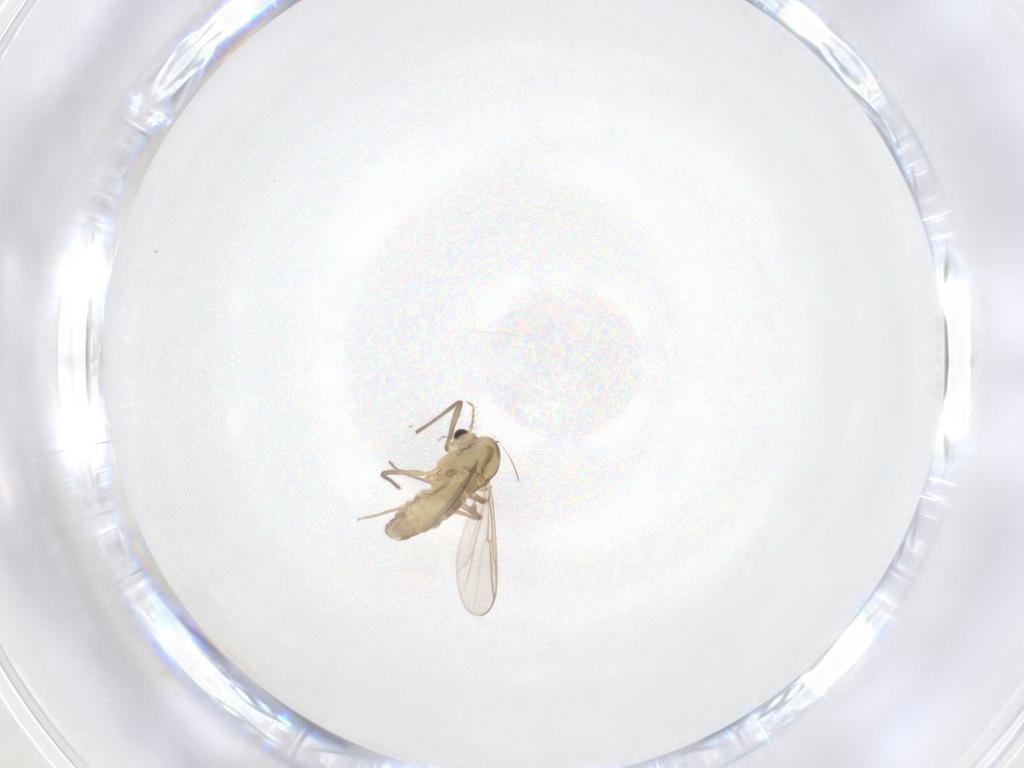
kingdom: Animalia
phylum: Arthropoda
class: Insecta
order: Diptera
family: Chironomidae
